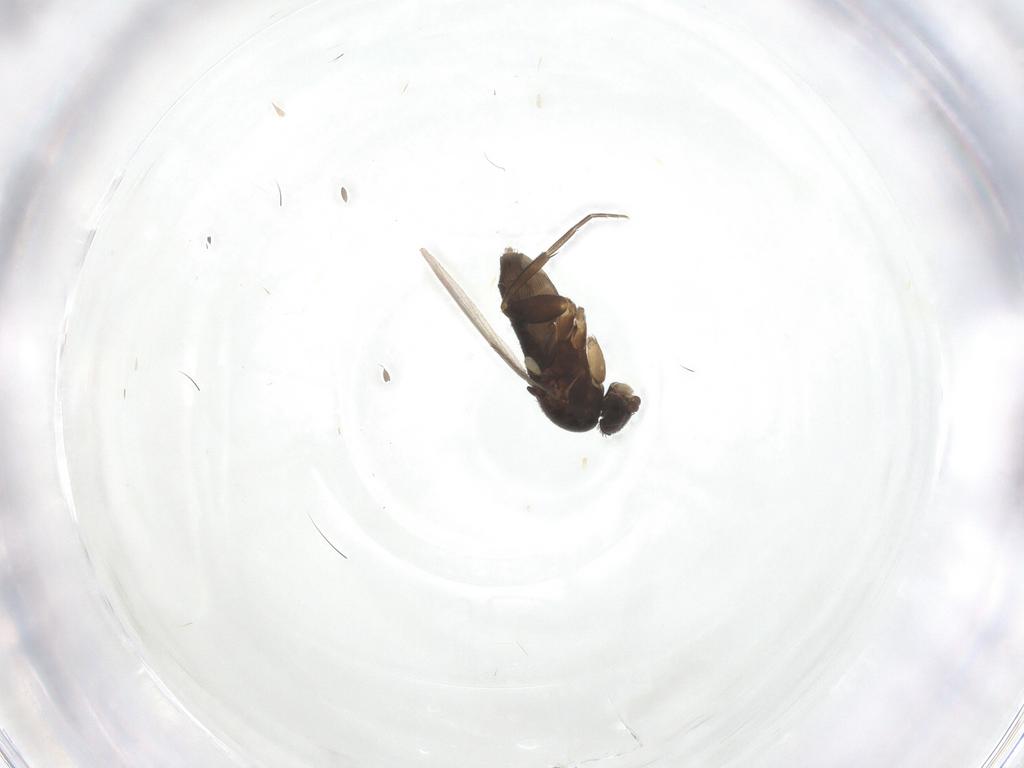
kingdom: Animalia
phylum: Arthropoda
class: Insecta
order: Diptera
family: Phoridae
